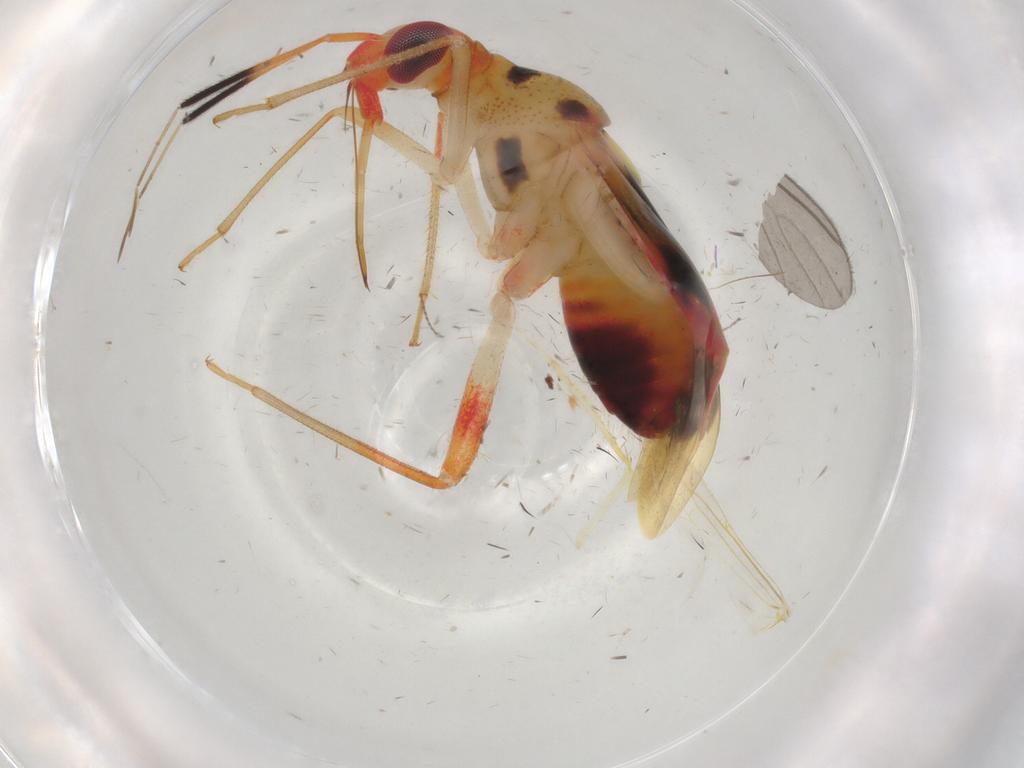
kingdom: Animalia
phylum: Arthropoda
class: Insecta
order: Hemiptera
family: Miridae
